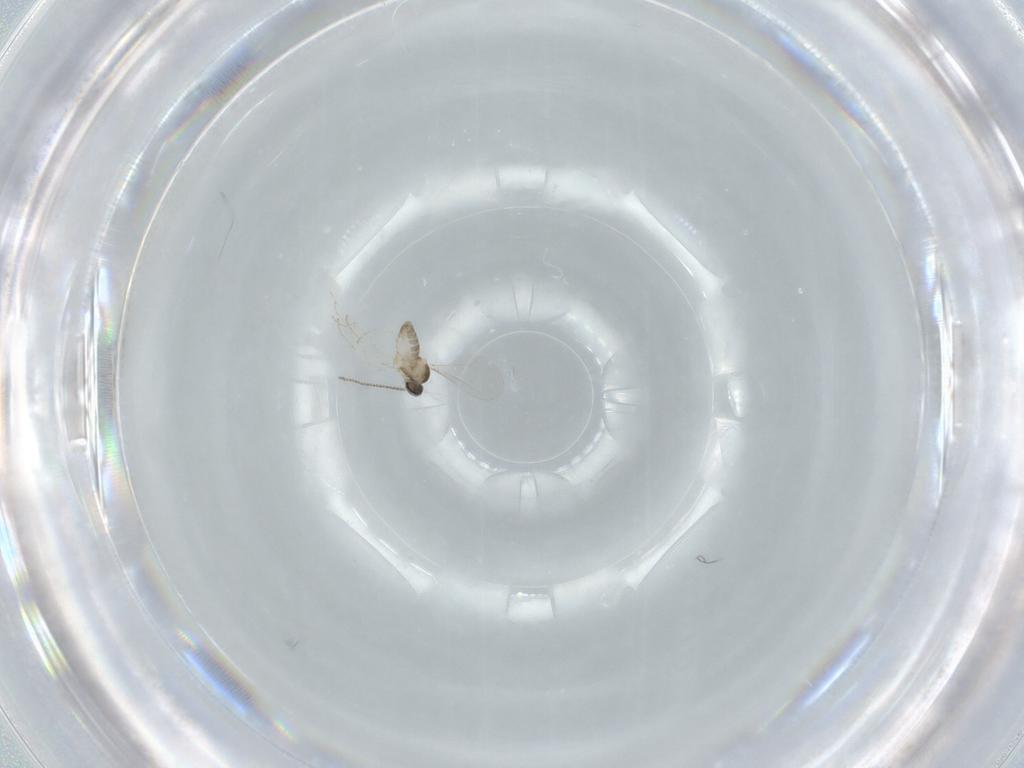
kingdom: Animalia
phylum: Arthropoda
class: Insecta
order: Diptera
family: Cecidomyiidae
